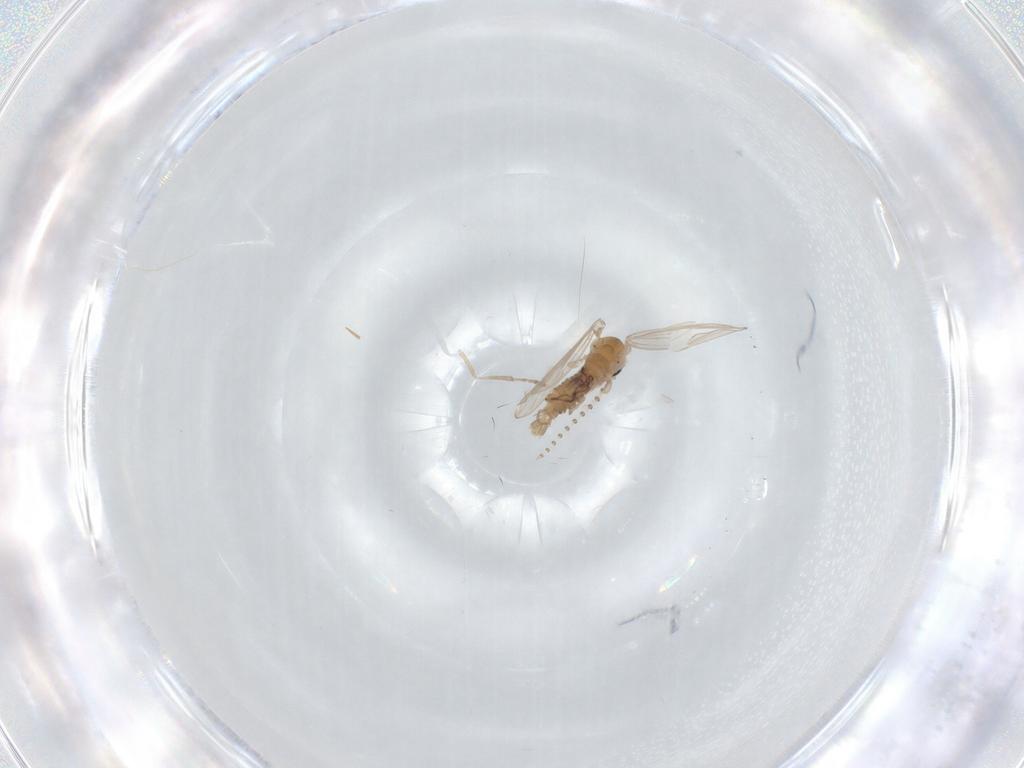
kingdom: Animalia
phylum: Arthropoda
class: Insecta
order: Diptera
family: Psychodidae
